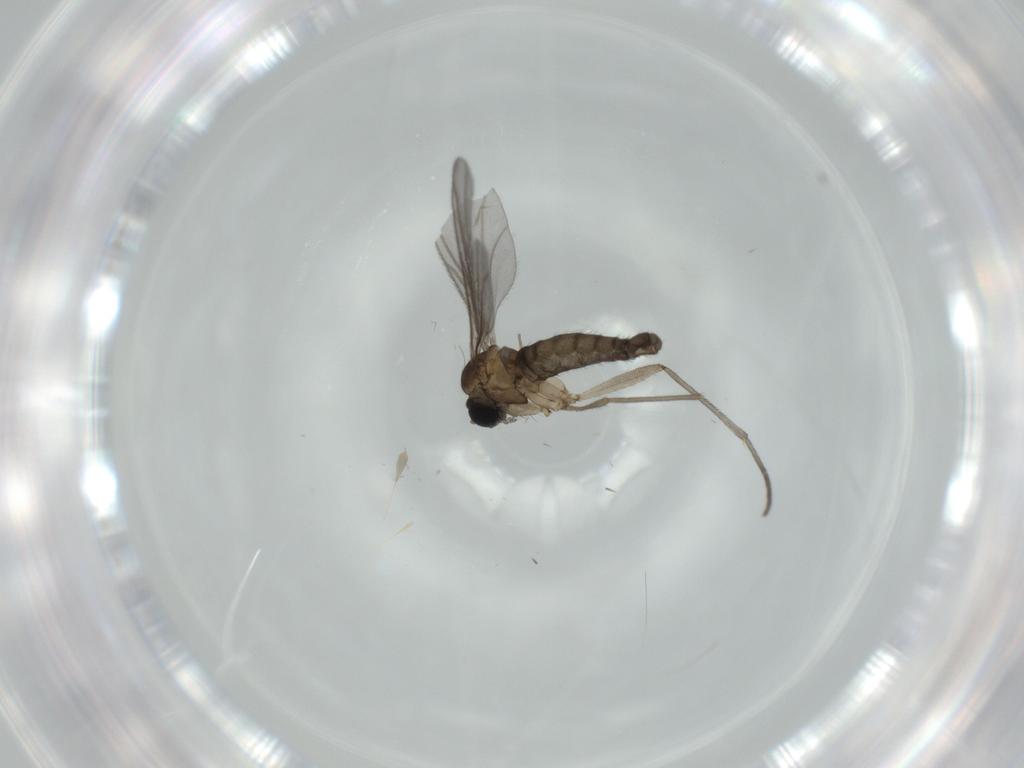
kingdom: Animalia
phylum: Arthropoda
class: Insecta
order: Diptera
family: Sciaridae
